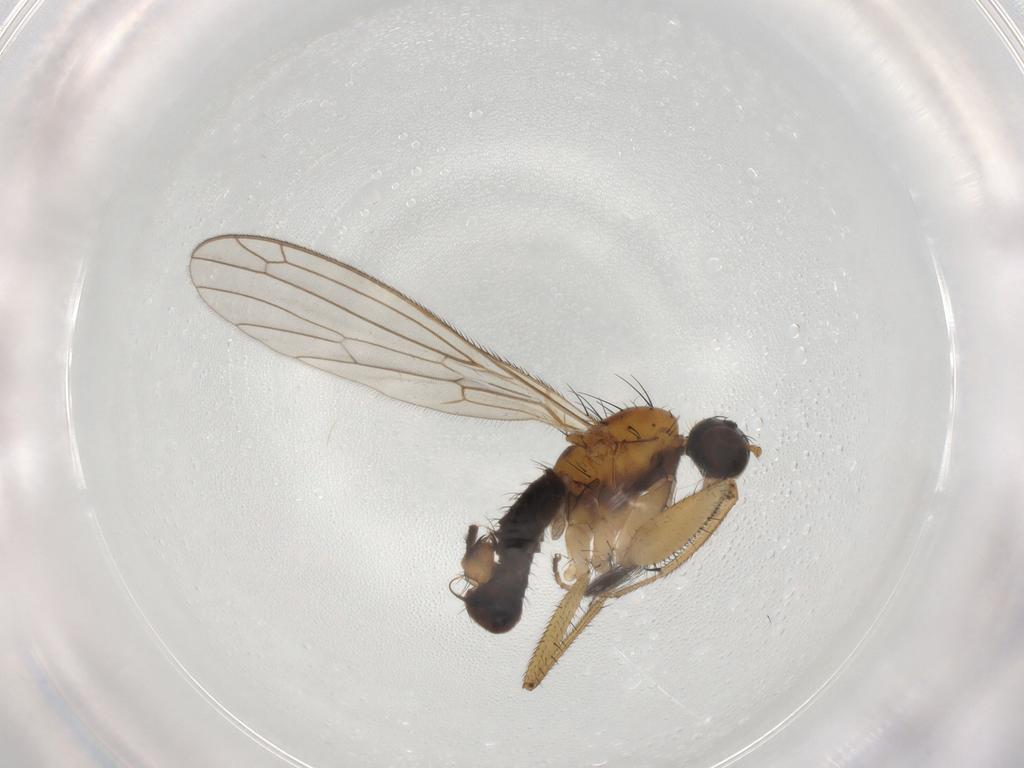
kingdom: Animalia
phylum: Arthropoda
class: Insecta
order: Diptera
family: Empididae
